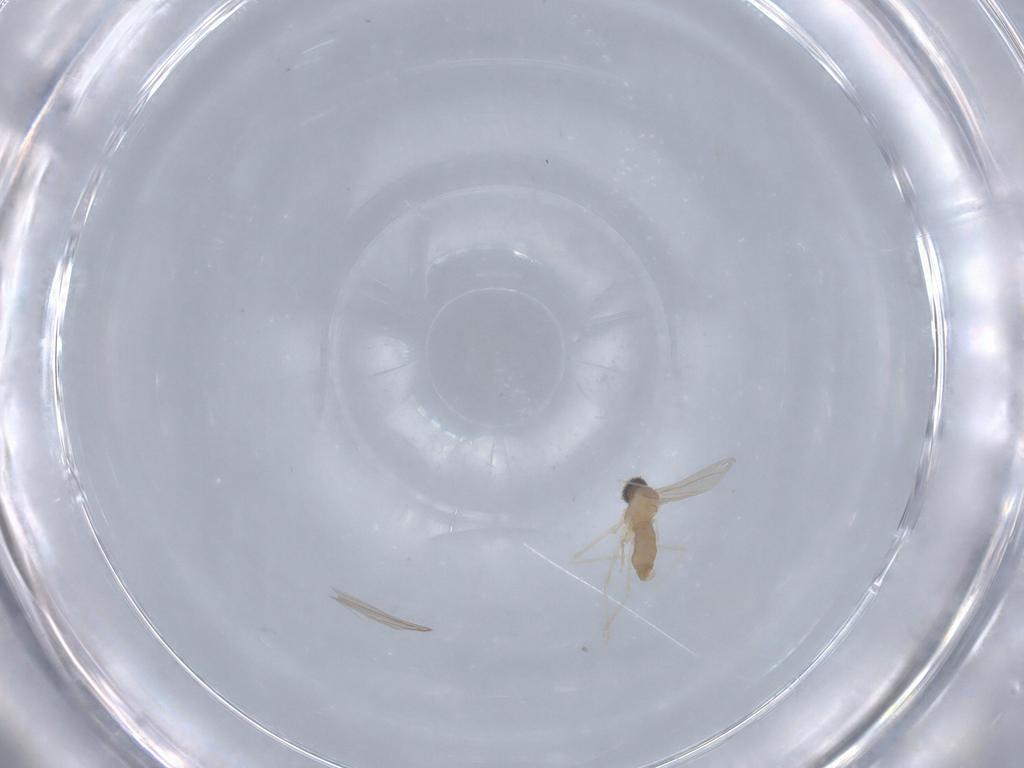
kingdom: Animalia
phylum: Arthropoda
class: Insecta
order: Diptera
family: Cecidomyiidae
